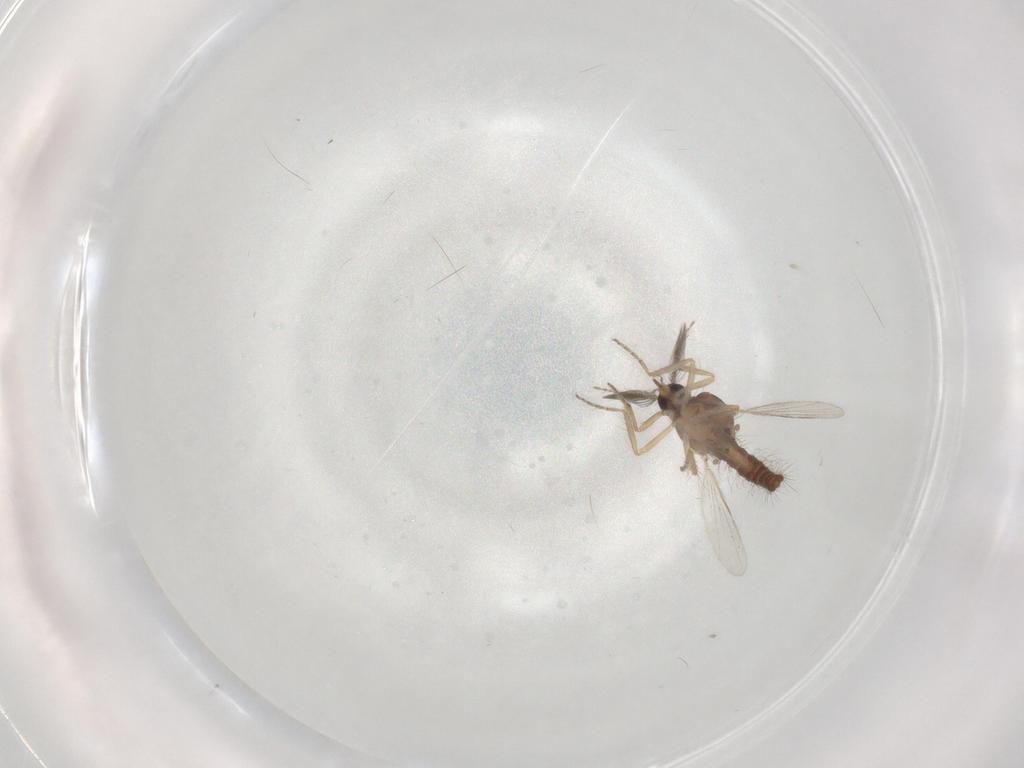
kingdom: Animalia
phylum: Arthropoda
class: Insecta
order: Diptera
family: Ceratopogonidae
